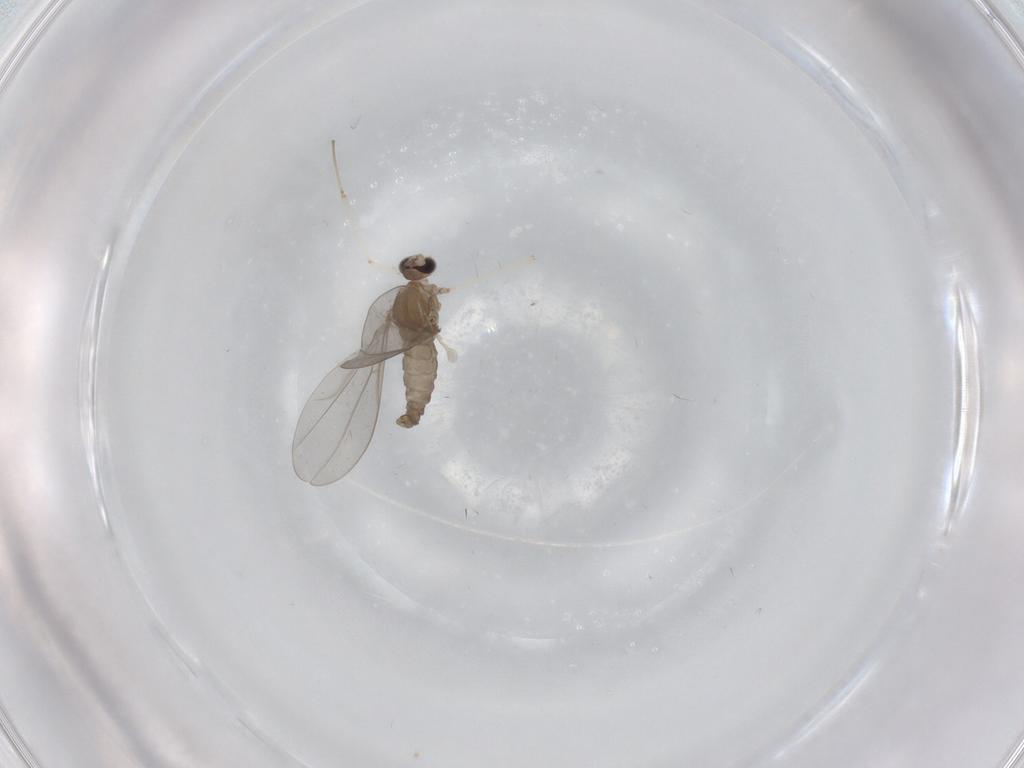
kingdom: Animalia
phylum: Arthropoda
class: Insecta
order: Diptera
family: Cecidomyiidae
